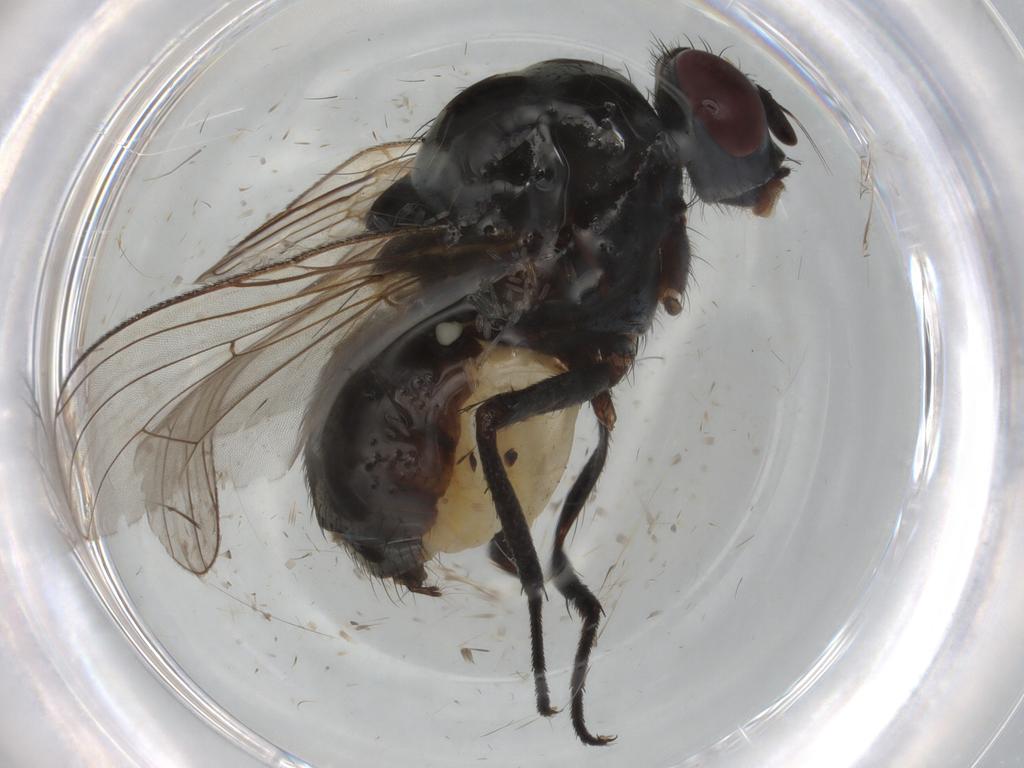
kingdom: Animalia
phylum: Arthropoda
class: Insecta
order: Diptera
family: Anthomyiidae
